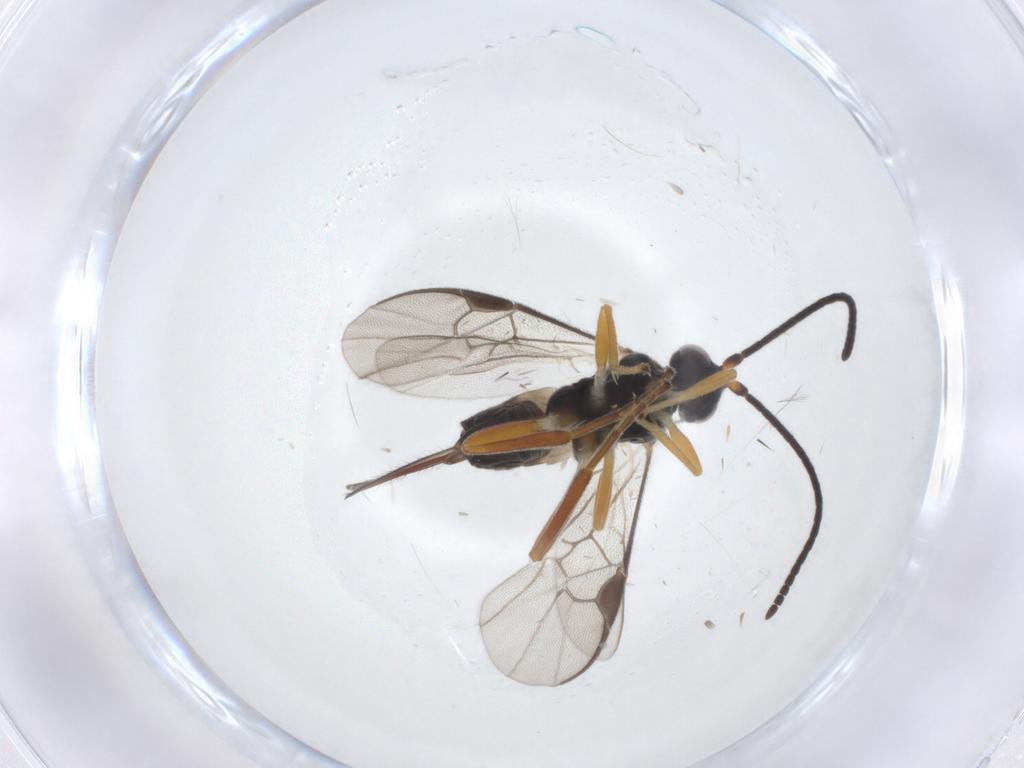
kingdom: Animalia
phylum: Arthropoda
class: Insecta
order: Hymenoptera
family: Braconidae
